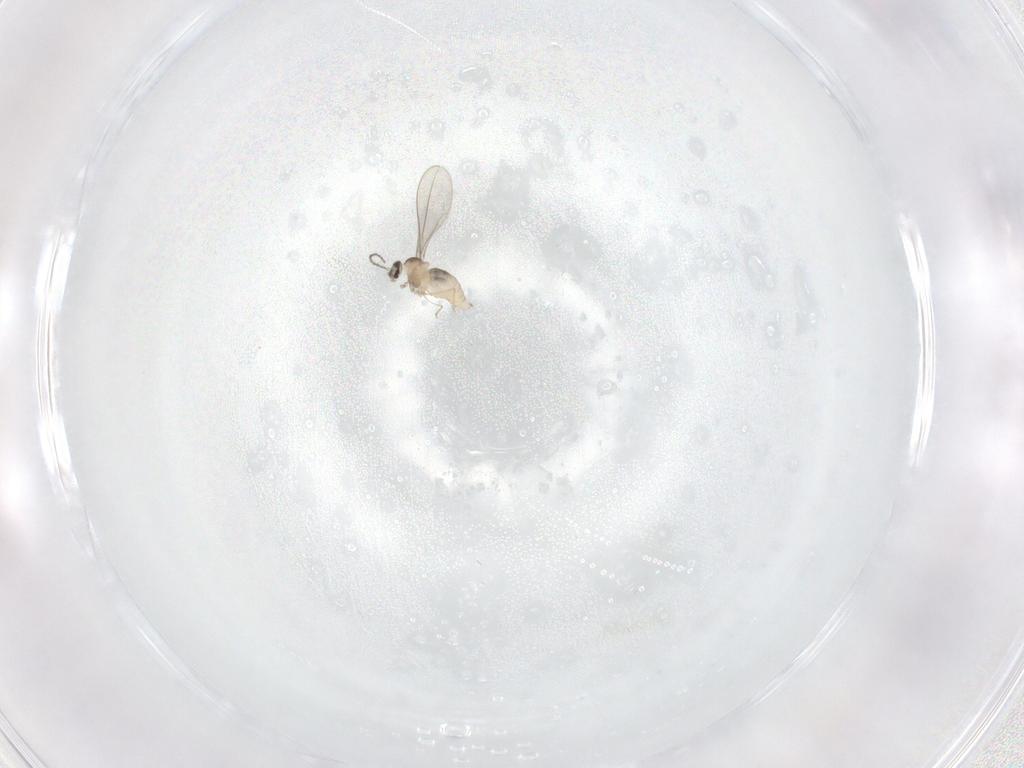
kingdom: Animalia
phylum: Arthropoda
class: Insecta
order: Diptera
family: Cecidomyiidae
